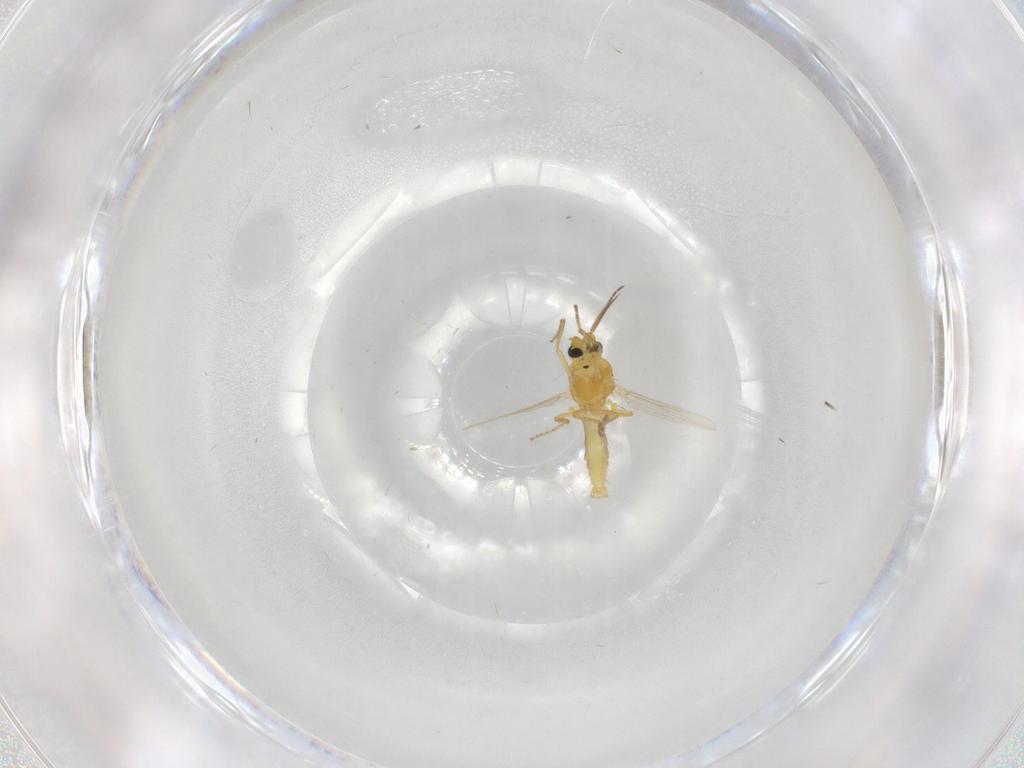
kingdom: Animalia
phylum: Arthropoda
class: Insecta
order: Diptera
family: Ceratopogonidae
